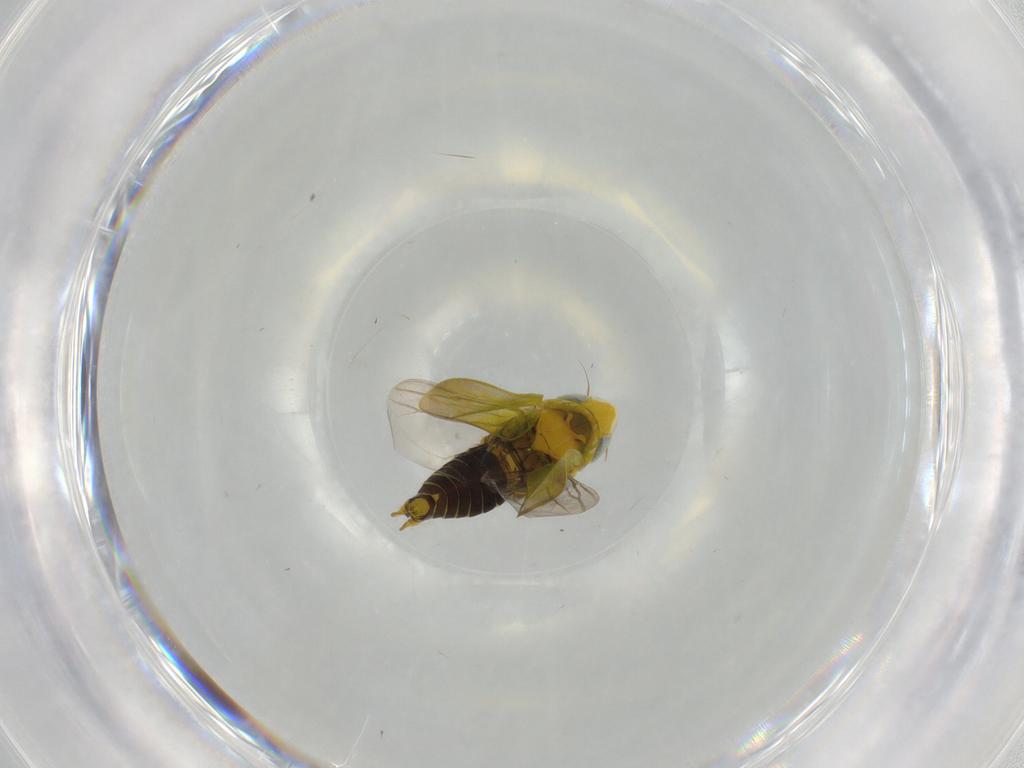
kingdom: Animalia
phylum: Arthropoda
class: Insecta
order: Hemiptera
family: Cicadellidae
